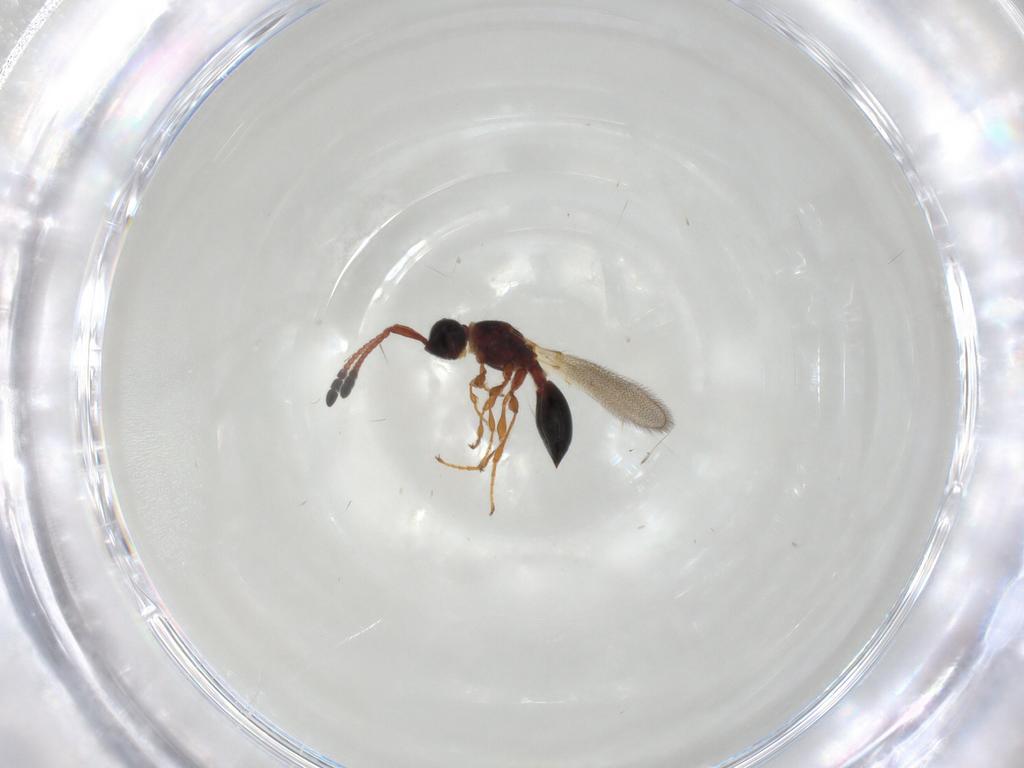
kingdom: Animalia
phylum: Arthropoda
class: Insecta
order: Hymenoptera
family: Diapriidae
